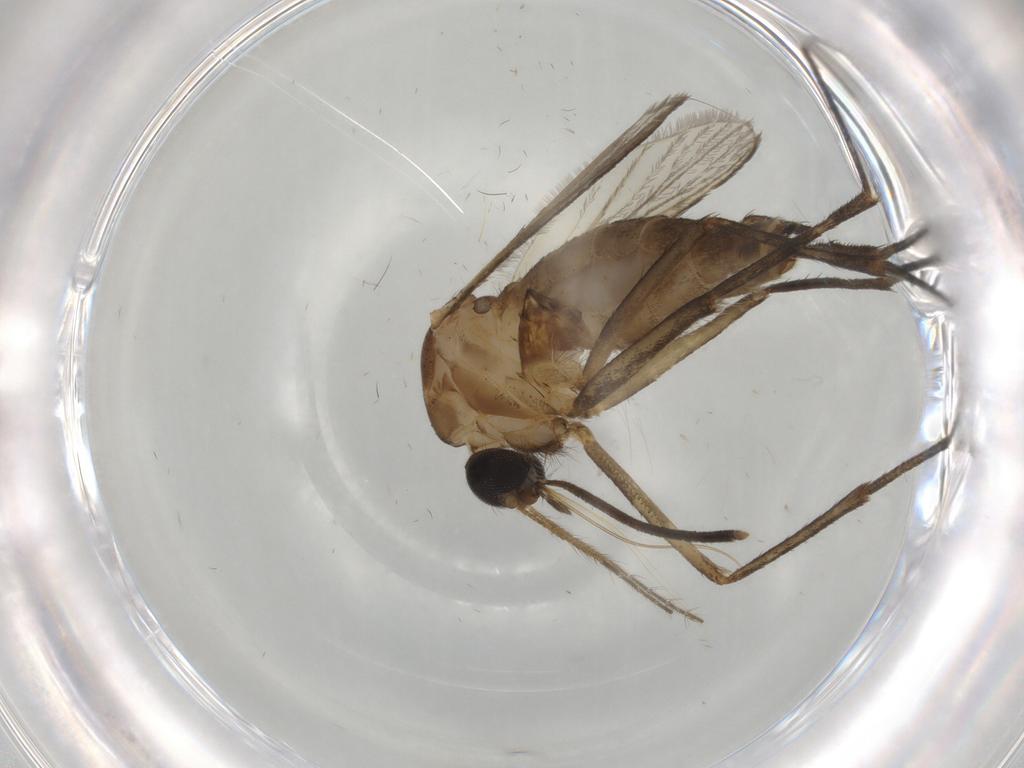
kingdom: Animalia
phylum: Arthropoda
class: Insecta
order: Diptera
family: Culicidae
